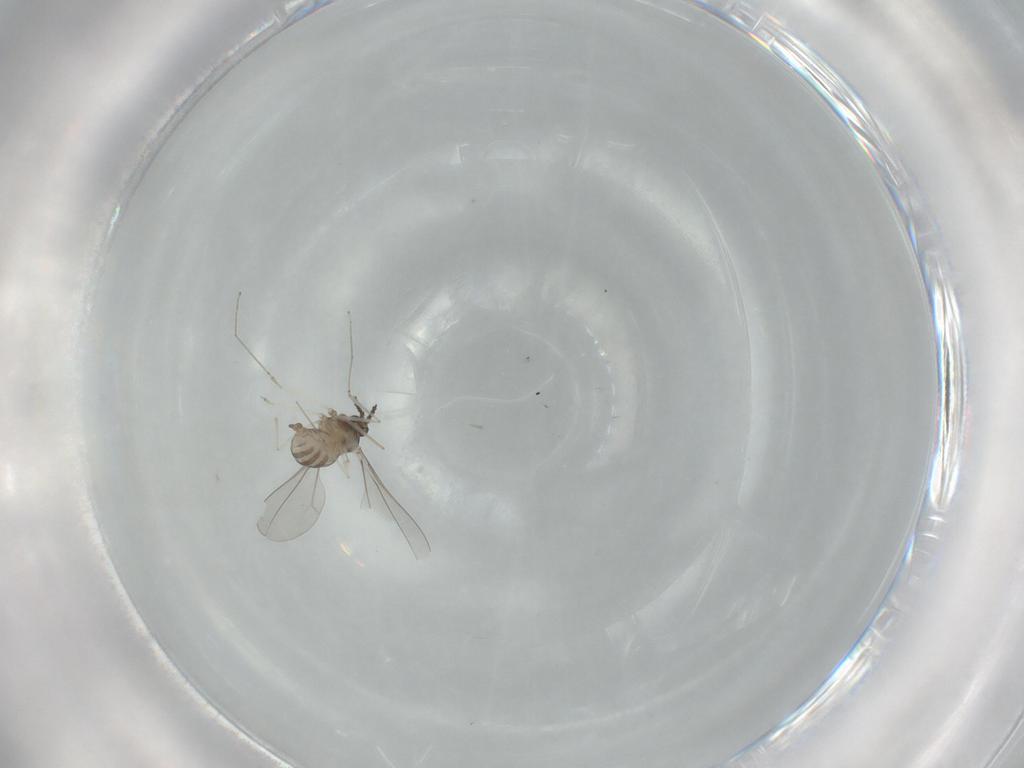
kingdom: Animalia
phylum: Arthropoda
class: Insecta
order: Diptera
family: Cecidomyiidae
